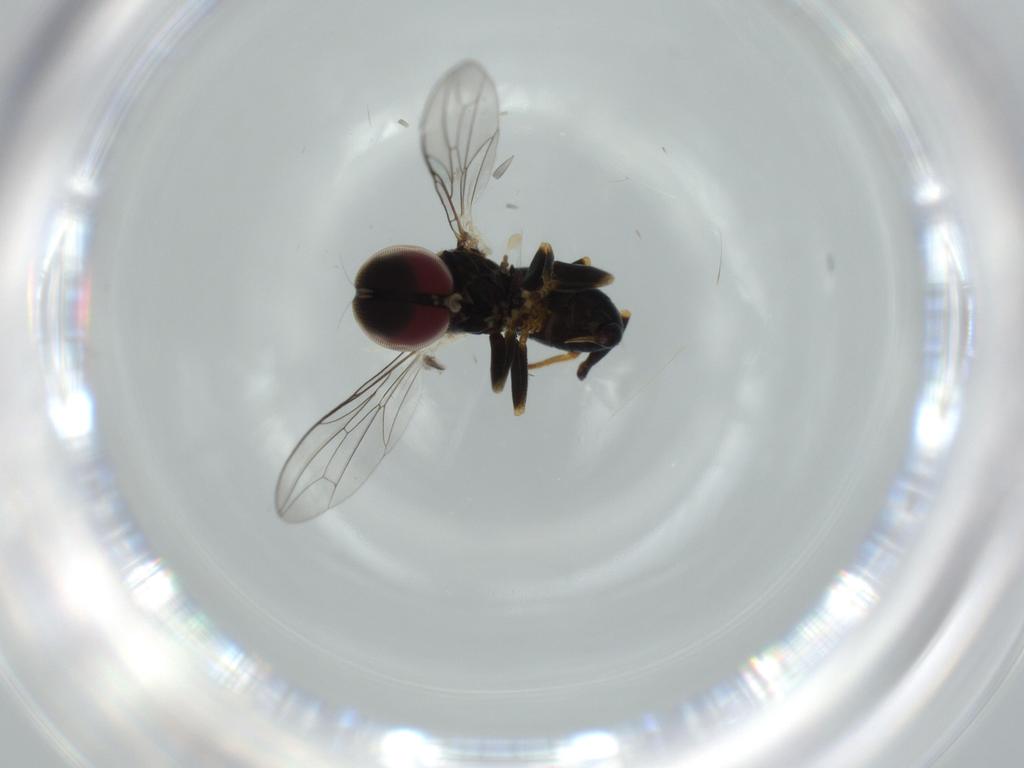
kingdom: Animalia
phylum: Arthropoda
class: Insecta
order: Diptera
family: Pipunculidae
